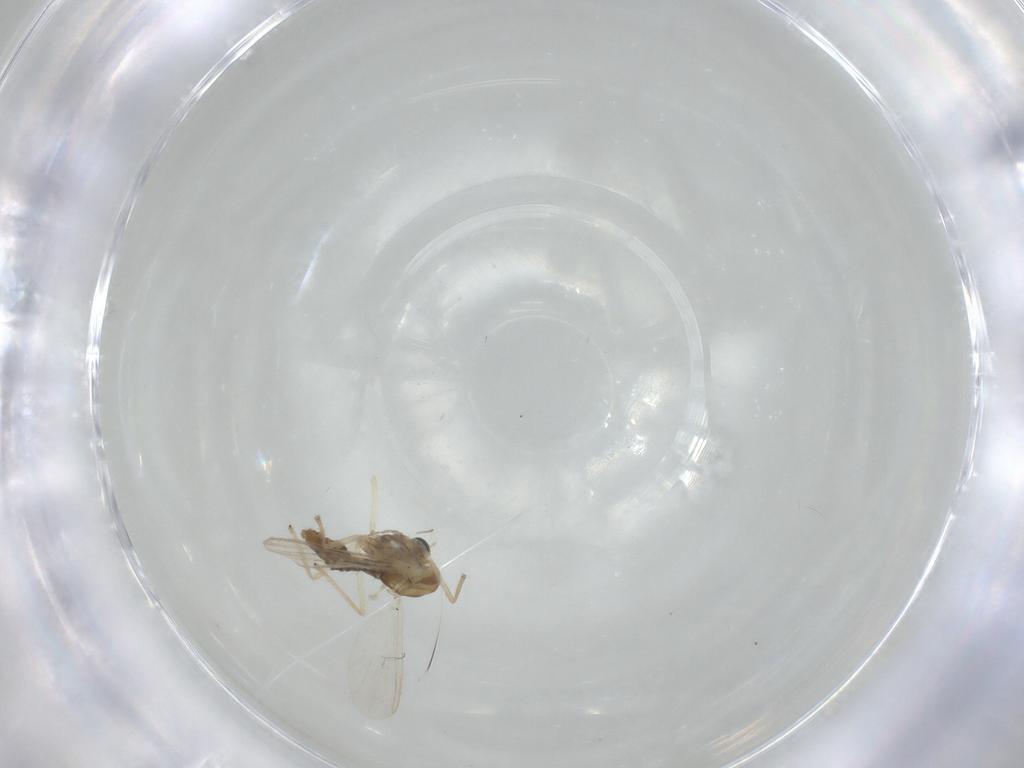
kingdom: Animalia
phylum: Arthropoda
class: Insecta
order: Diptera
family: Ceratopogonidae
